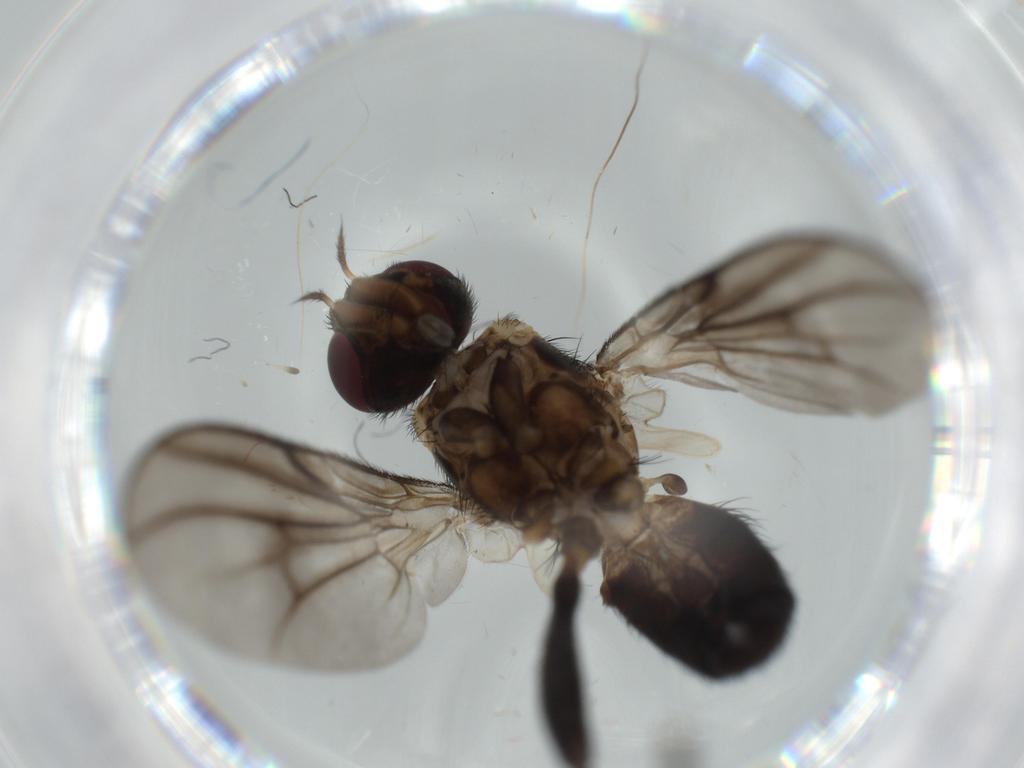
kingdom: Animalia
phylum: Arthropoda
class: Insecta
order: Diptera
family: Calliphoridae
